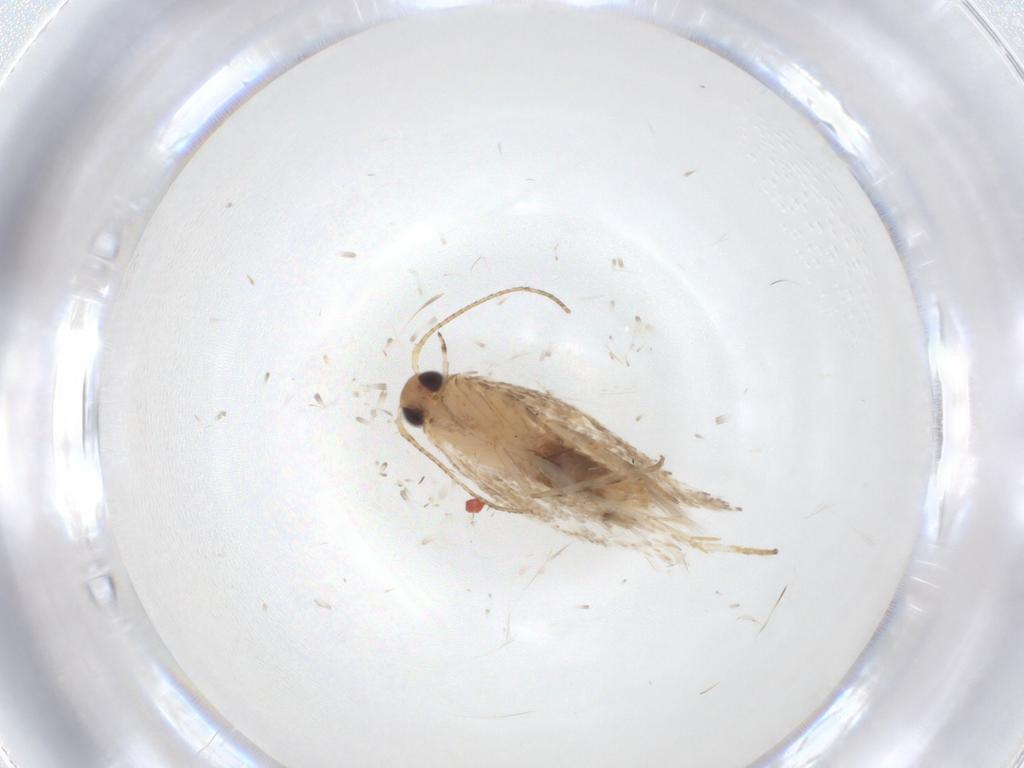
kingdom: Animalia
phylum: Arthropoda
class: Insecta
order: Lepidoptera
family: Gelechiidae
